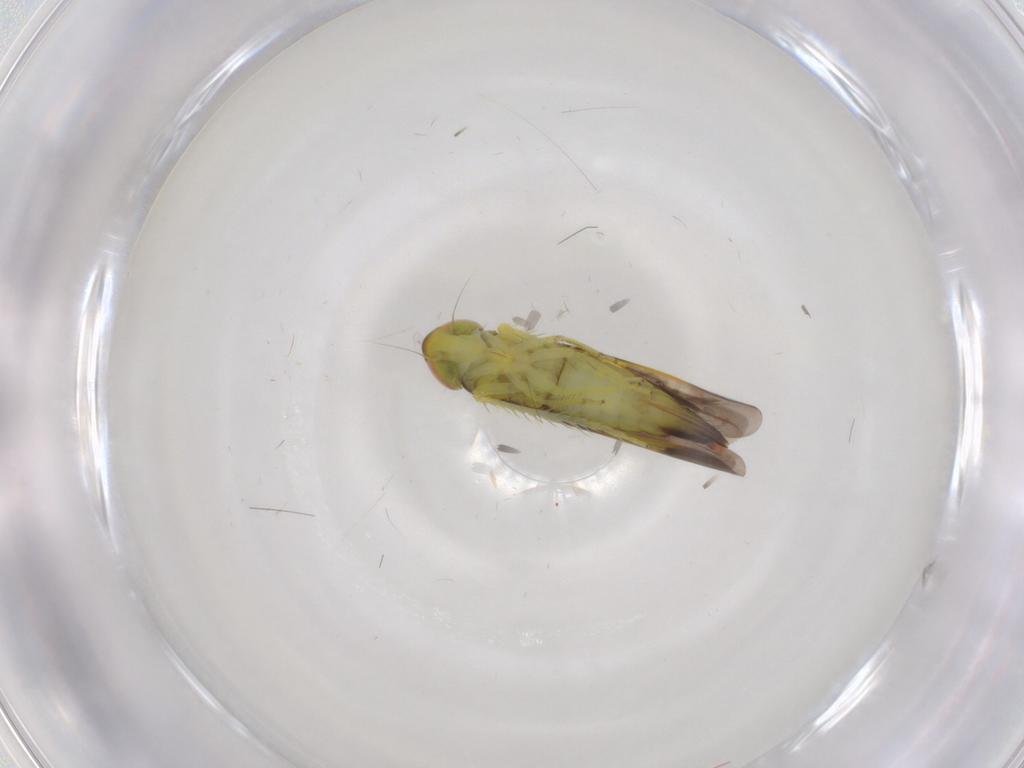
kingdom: Animalia
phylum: Arthropoda
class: Insecta
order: Hemiptera
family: Cicadellidae
